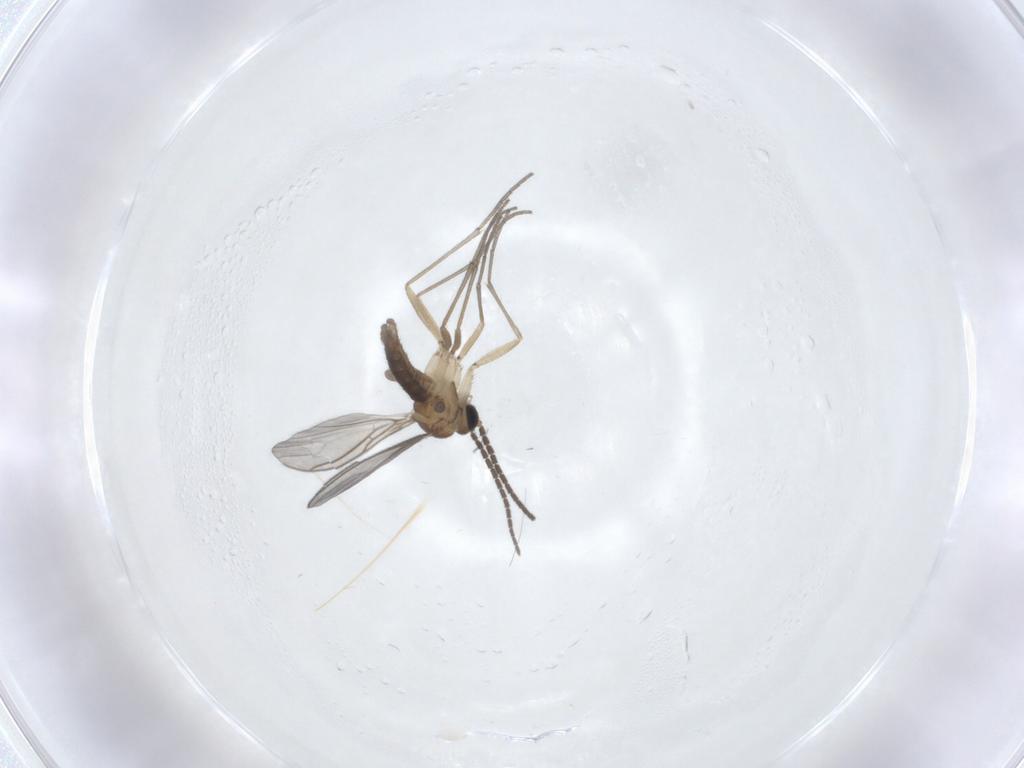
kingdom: Animalia
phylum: Arthropoda
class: Insecta
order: Diptera
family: Sciaridae
